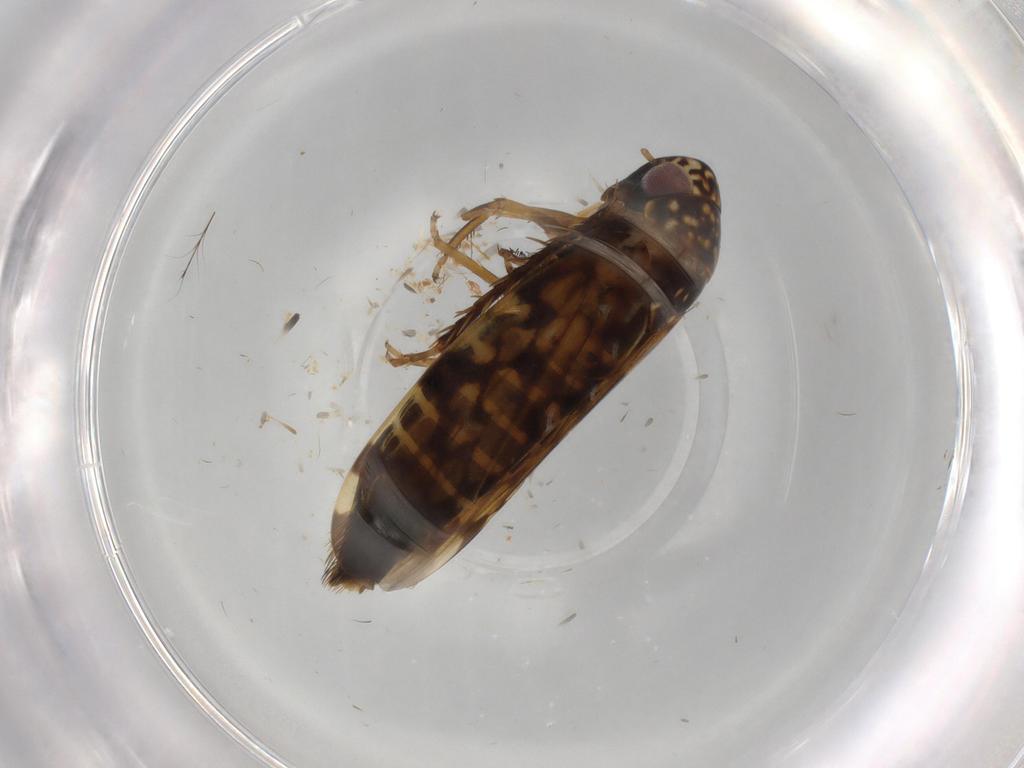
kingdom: Animalia
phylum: Arthropoda
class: Insecta
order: Hemiptera
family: Cicadellidae
